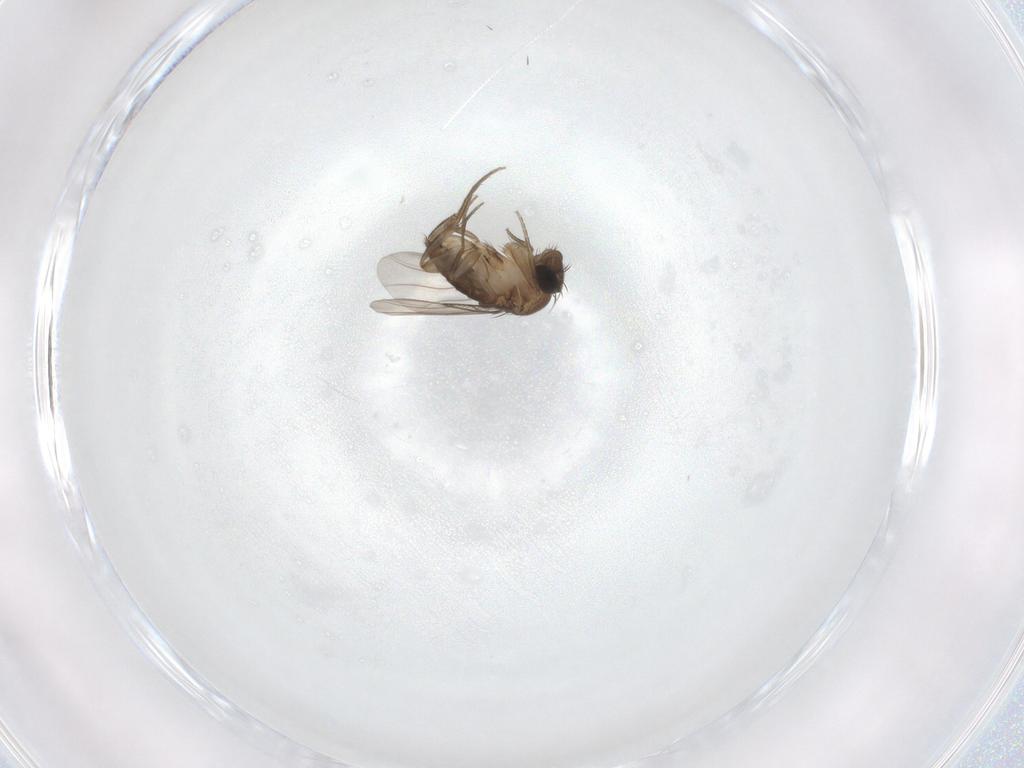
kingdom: Animalia
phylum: Arthropoda
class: Insecta
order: Diptera
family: Phoridae
